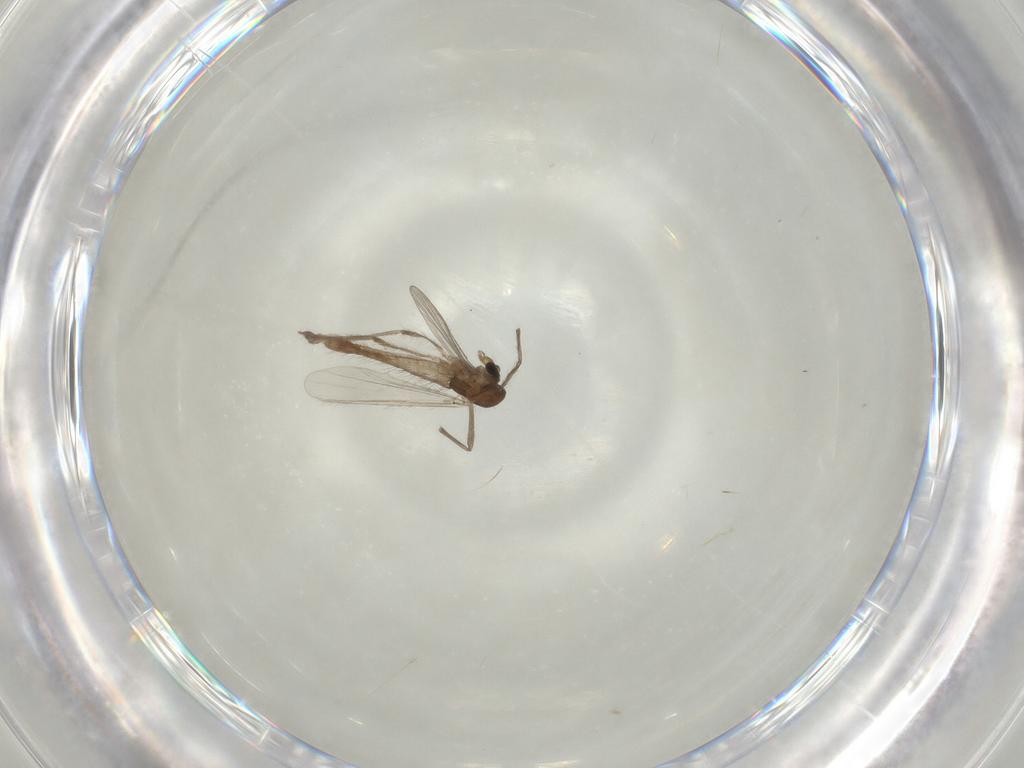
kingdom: Animalia
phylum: Arthropoda
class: Insecta
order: Diptera
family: Chironomidae
